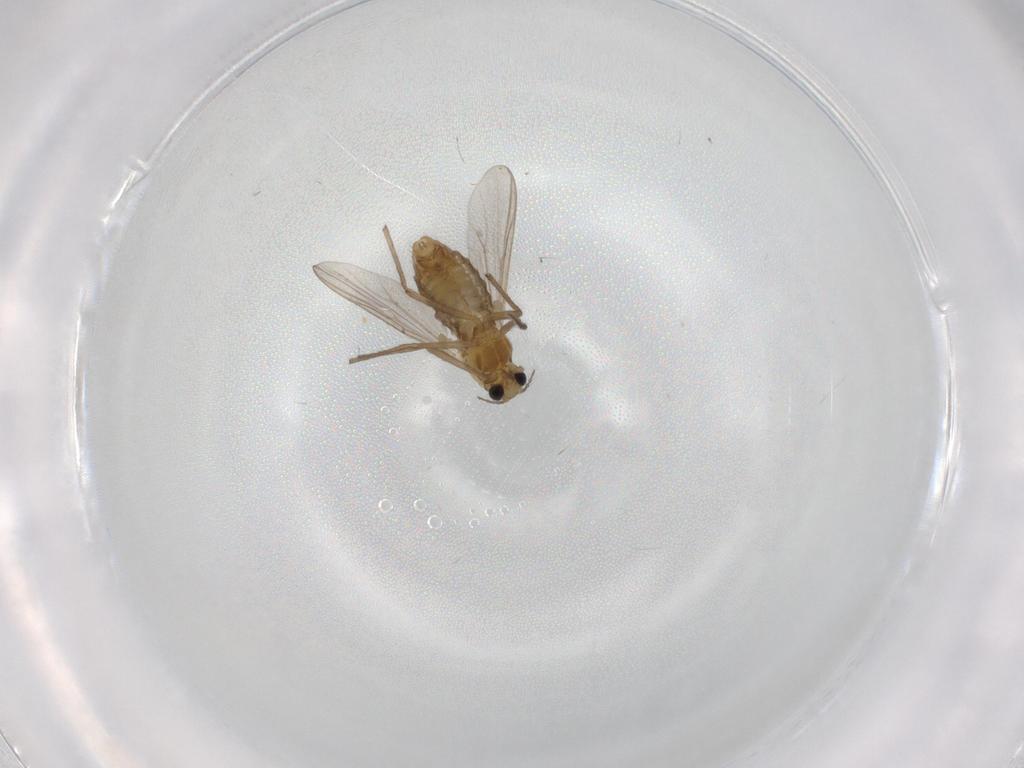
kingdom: Animalia
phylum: Arthropoda
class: Insecta
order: Diptera
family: Chironomidae
